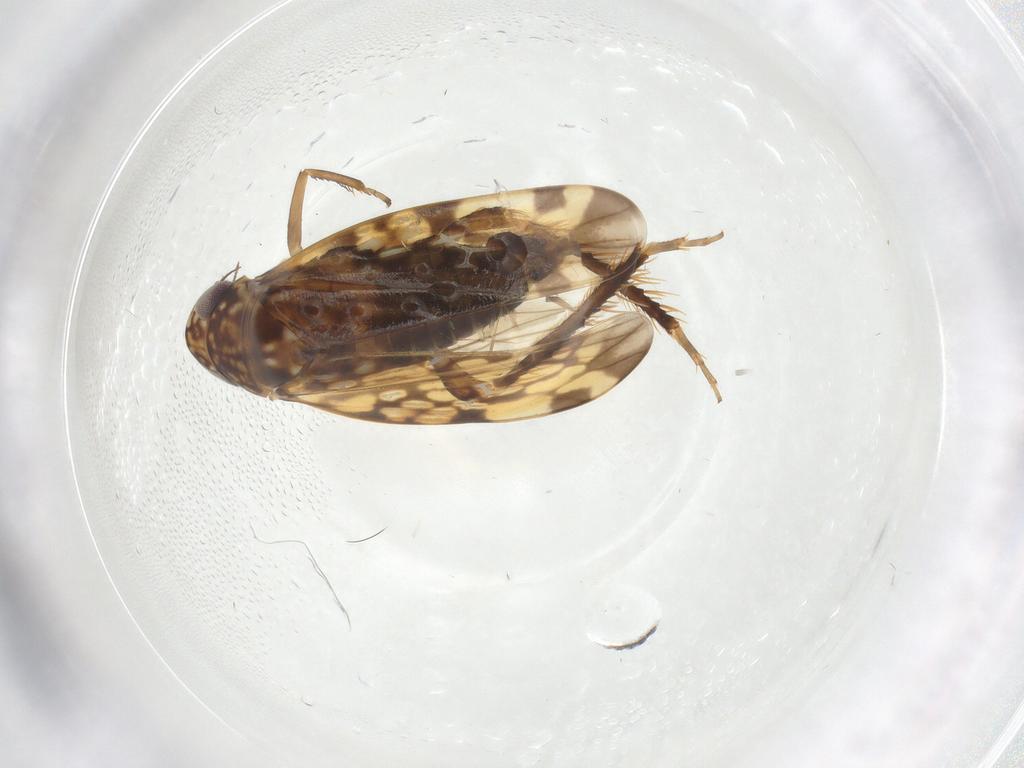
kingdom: Animalia
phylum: Arthropoda
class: Insecta
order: Hemiptera
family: Cicadellidae
